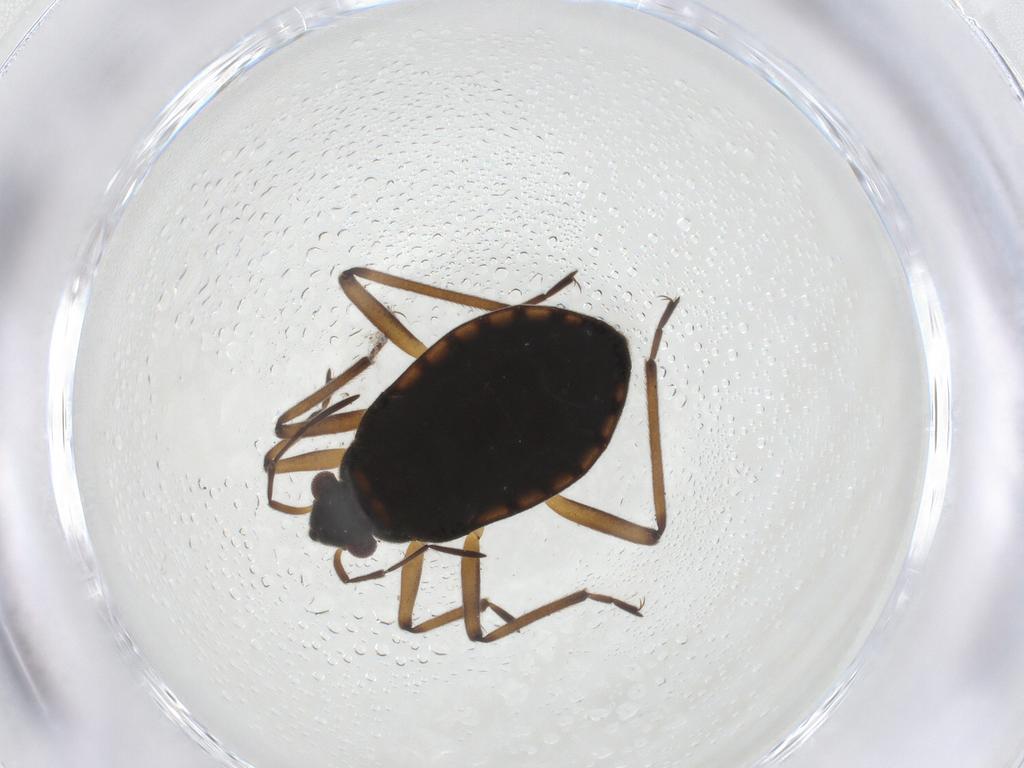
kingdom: Animalia
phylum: Arthropoda
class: Insecta
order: Hemiptera
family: Veliidae
